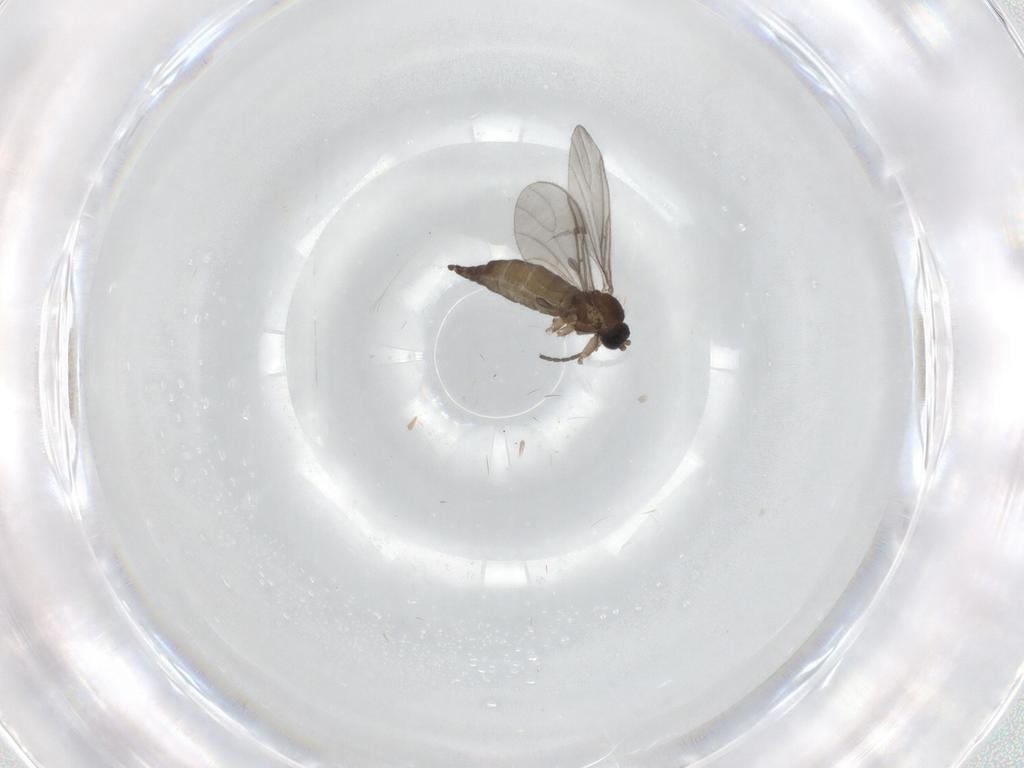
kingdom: Animalia
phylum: Arthropoda
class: Insecta
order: Diptera
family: Sciaridae
